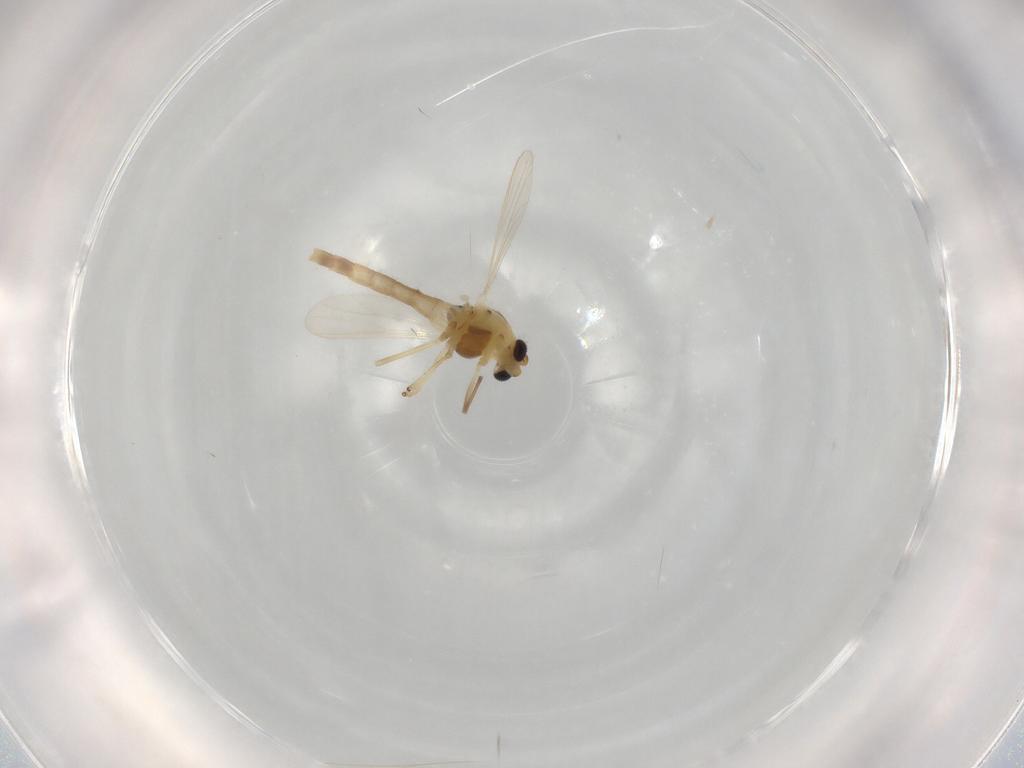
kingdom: Animalia
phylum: Arthropoda
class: Insecta
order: Diptera
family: Chironomidae
